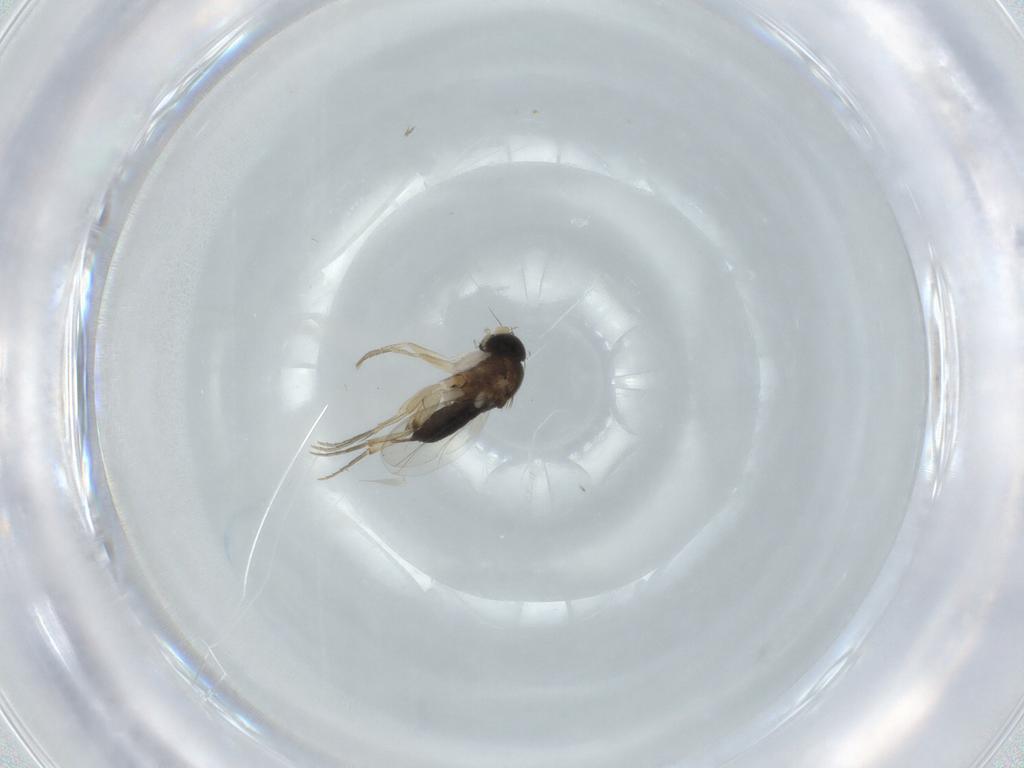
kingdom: Animalia
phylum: Arthropoda
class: Insecta
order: Diptera
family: Phoridae
